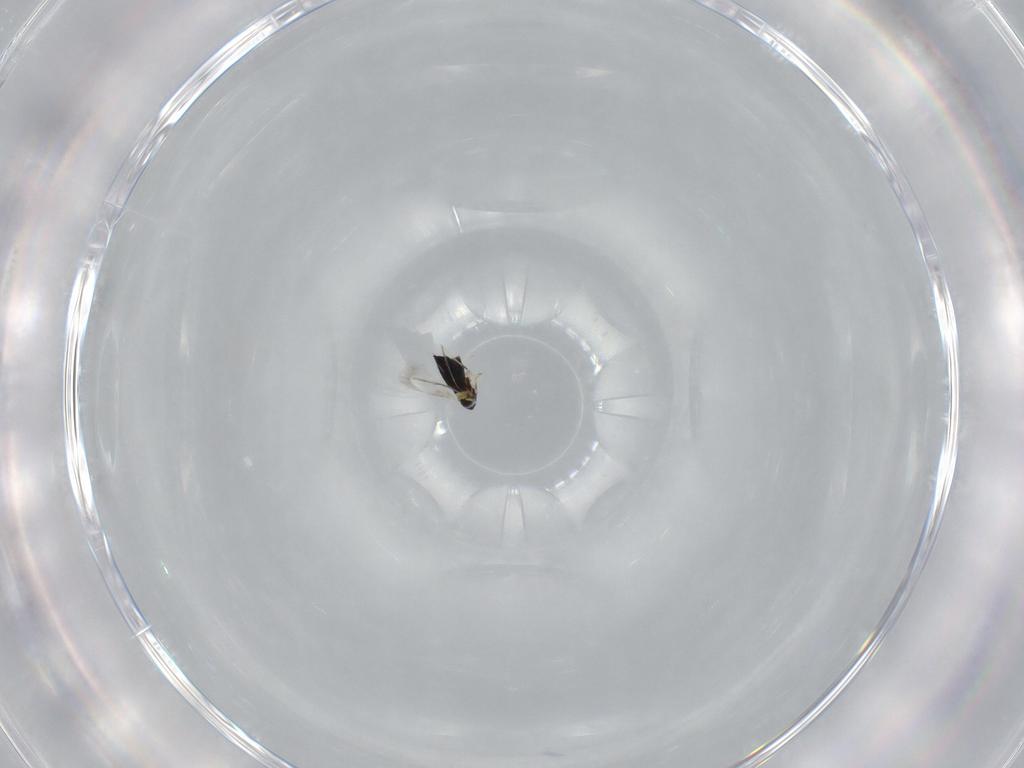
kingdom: Animalia
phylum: Arthropoda
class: Insecta
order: Hymenoptera
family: Signiphoridae
